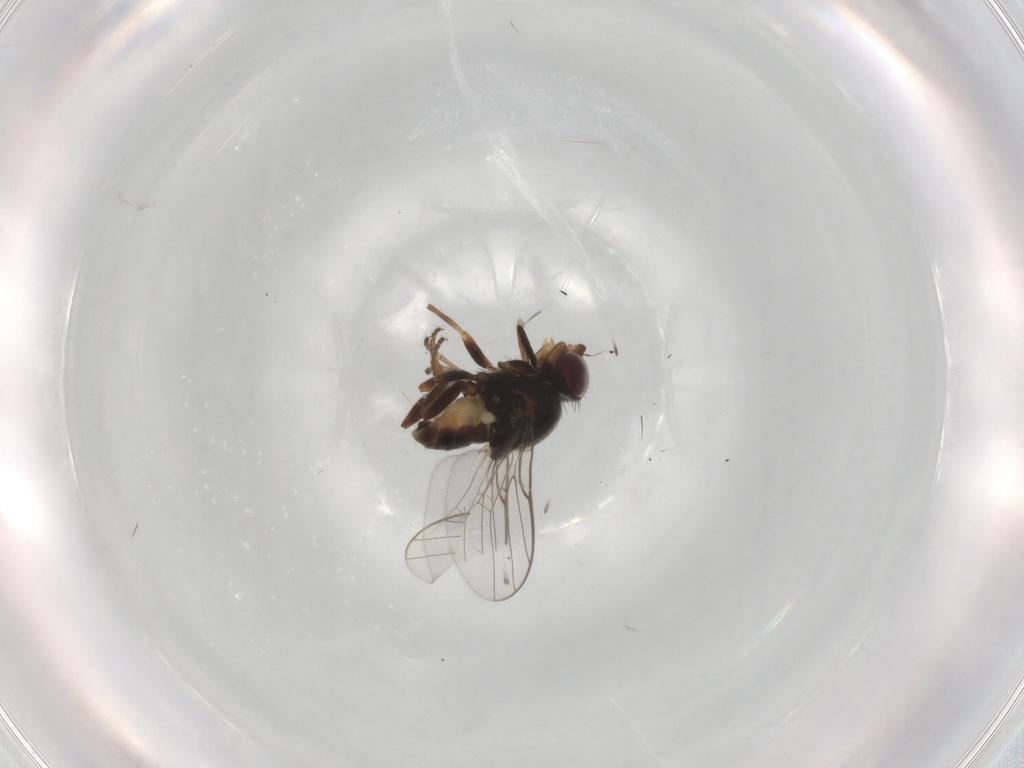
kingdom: Animalia
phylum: Arthropoda
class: Insecta
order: Diptera
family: Chloropidae
